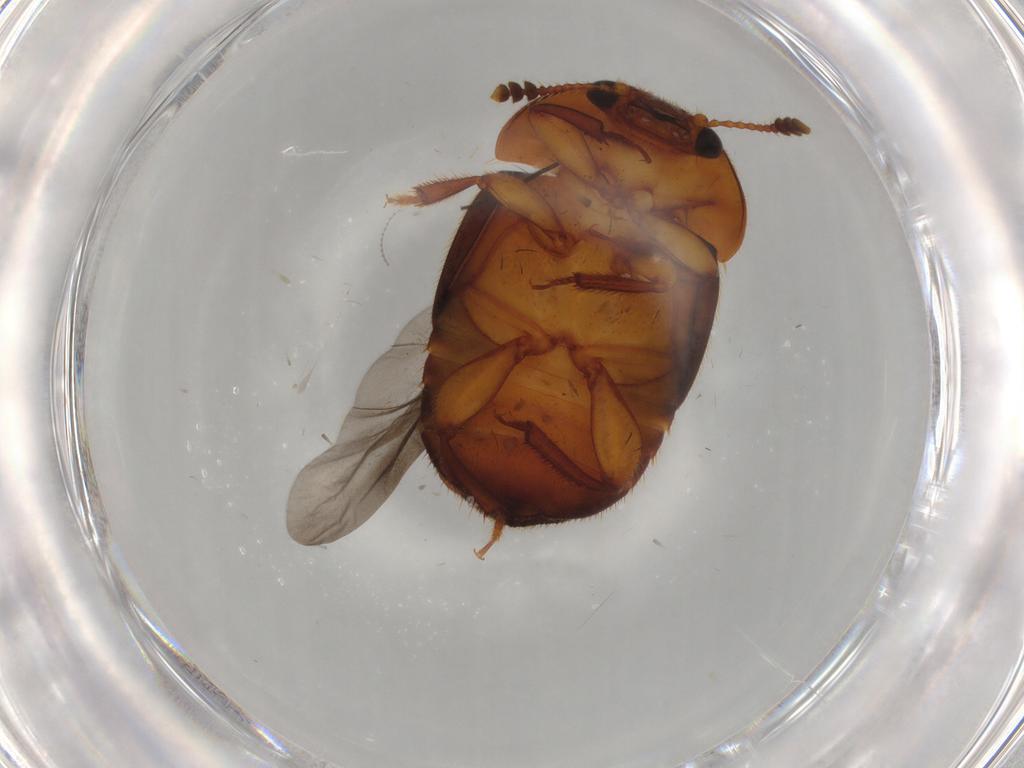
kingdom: Animalia
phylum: Arthropoda
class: Insecta
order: Coleoptera
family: Nitidulidae
